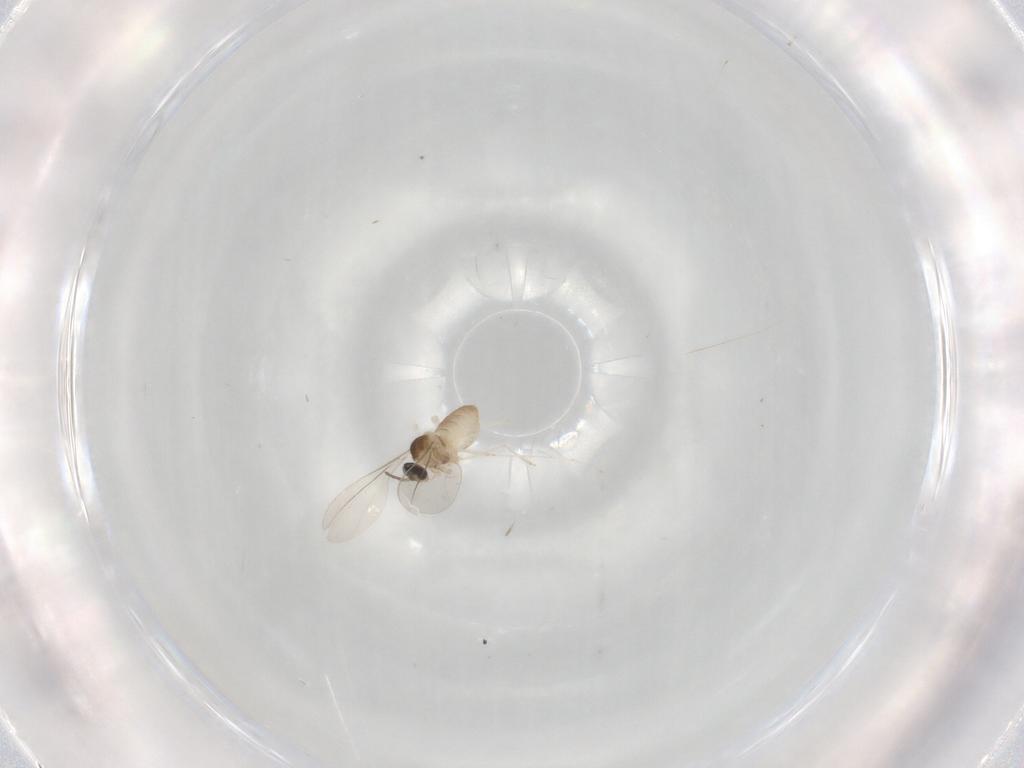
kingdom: Animalia
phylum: Arthropoda
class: Insecta
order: Diptera
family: Cecidomyiidae
